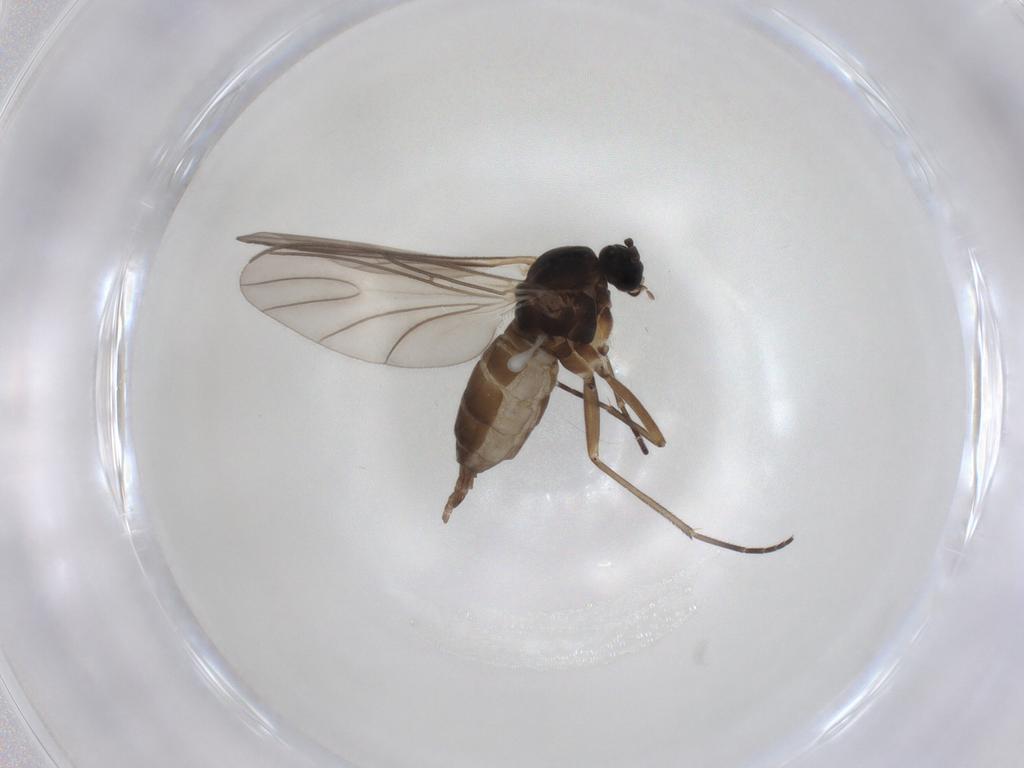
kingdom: Animalia
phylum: Arthropoda
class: Insecta
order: Diptera
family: Sciaridae
